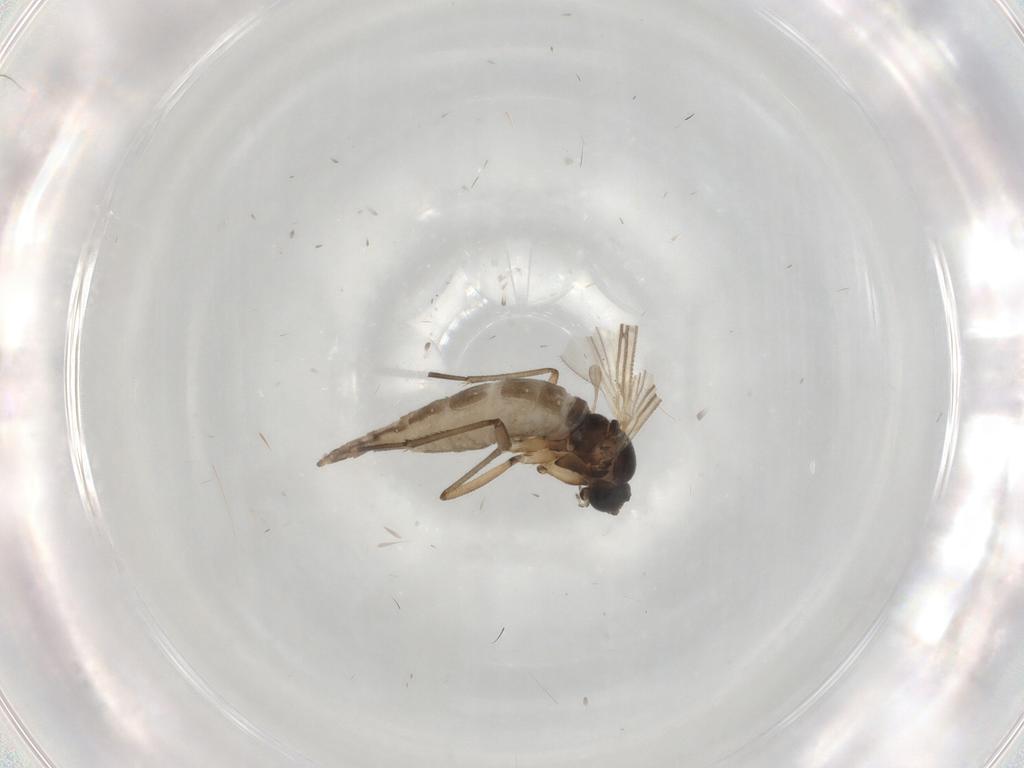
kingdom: Animalia
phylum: Arthropoda
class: Insecta
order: Diptera
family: Sciaridae
